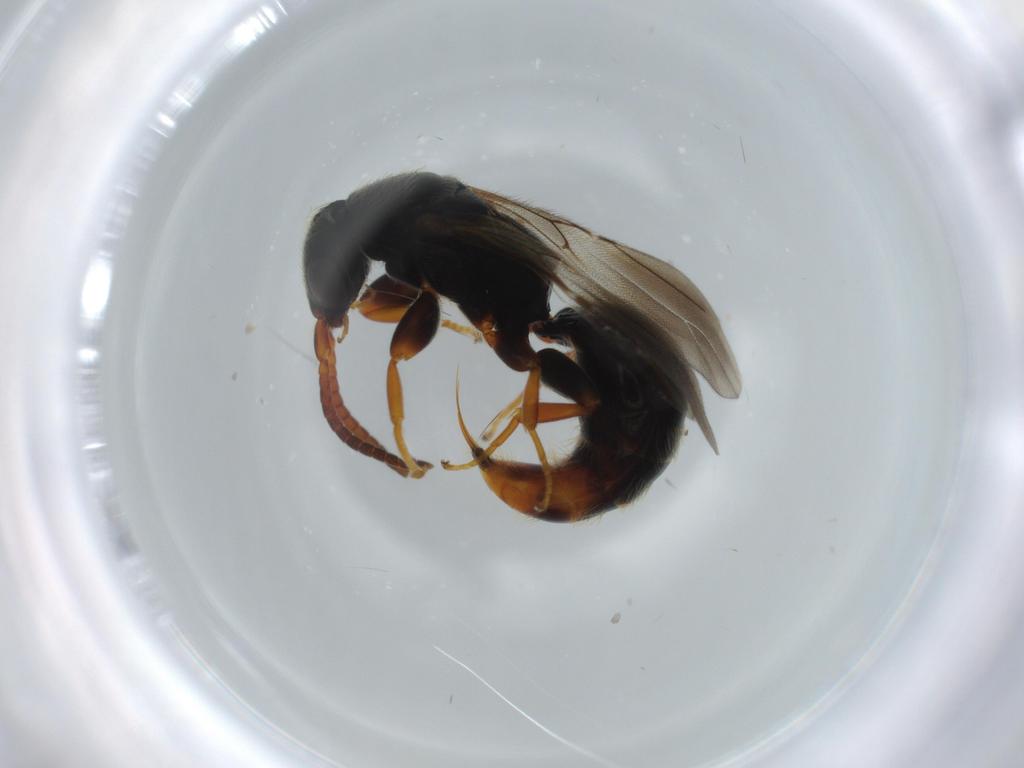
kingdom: Animalia
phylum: Arthropoda
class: Insecta
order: Hymenoptera
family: Bethylidae
